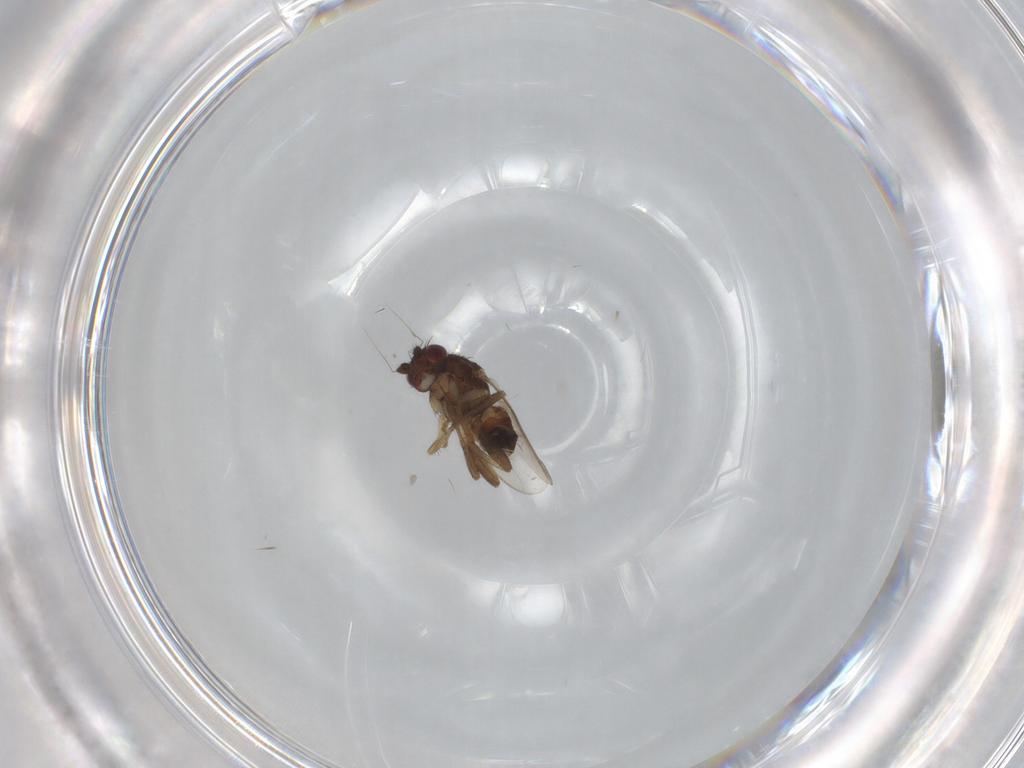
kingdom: Animalia
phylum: Arthropoda
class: Insecta
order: Diptera
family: Sphaeroceridae
